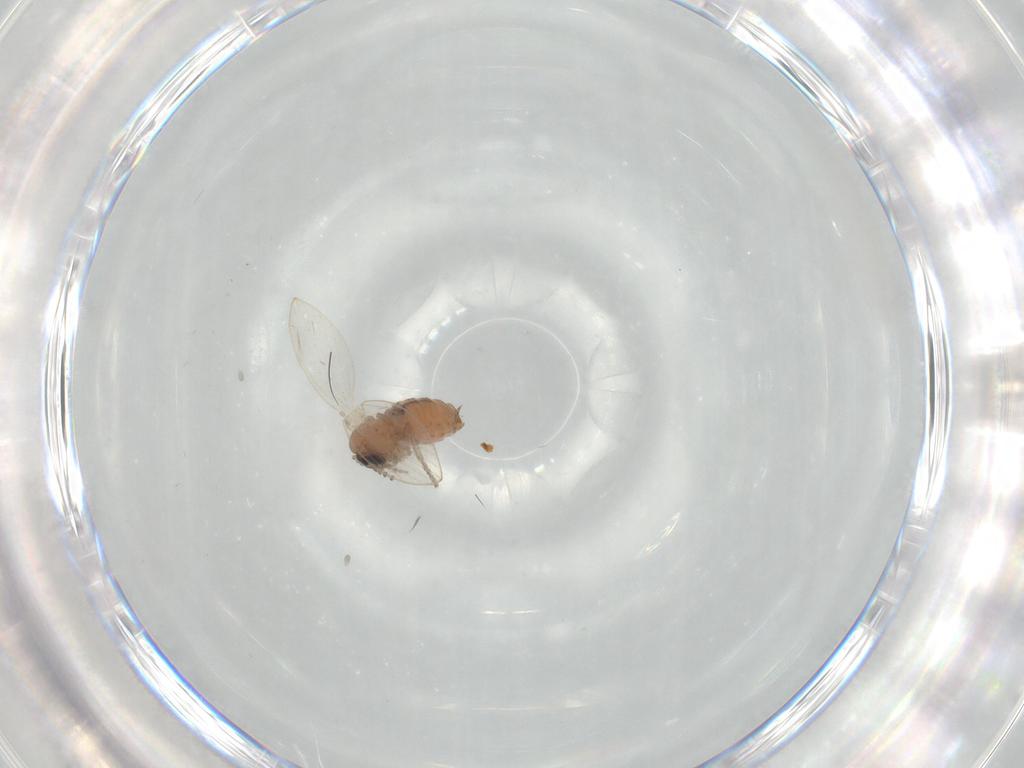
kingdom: Animalia
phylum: Arthropoda
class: Insecta
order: Diptera
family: Psychodidae
